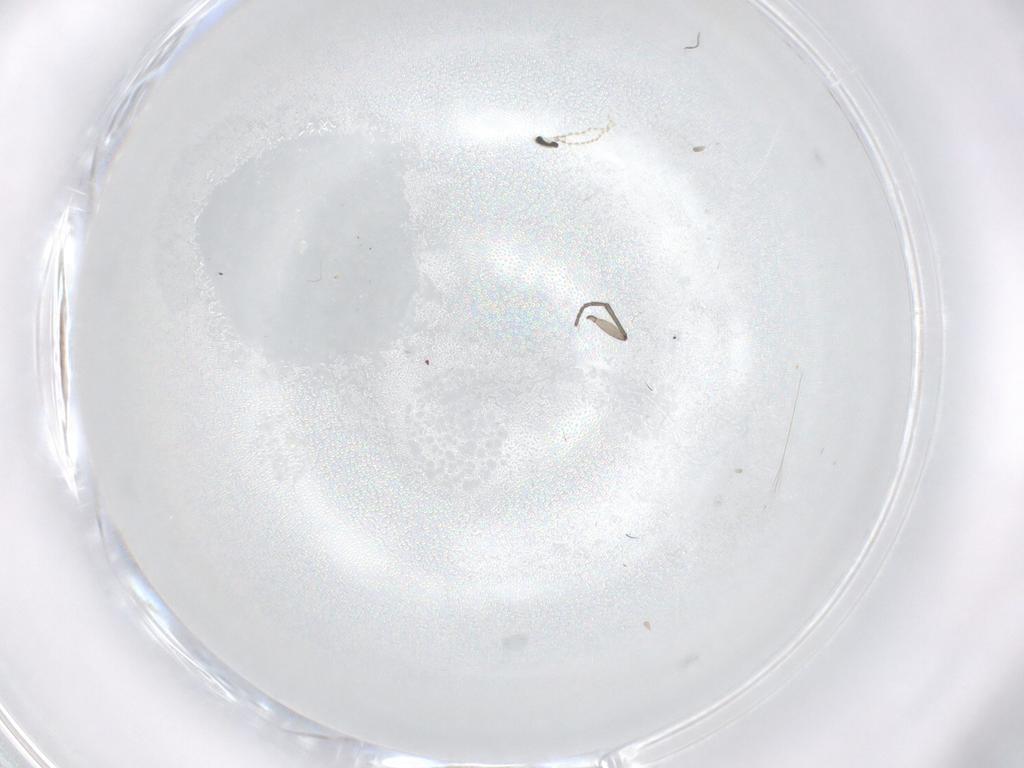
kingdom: Animalia
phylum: Arthropoda
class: Insecta
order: Diptera
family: Cecidomyiidae
